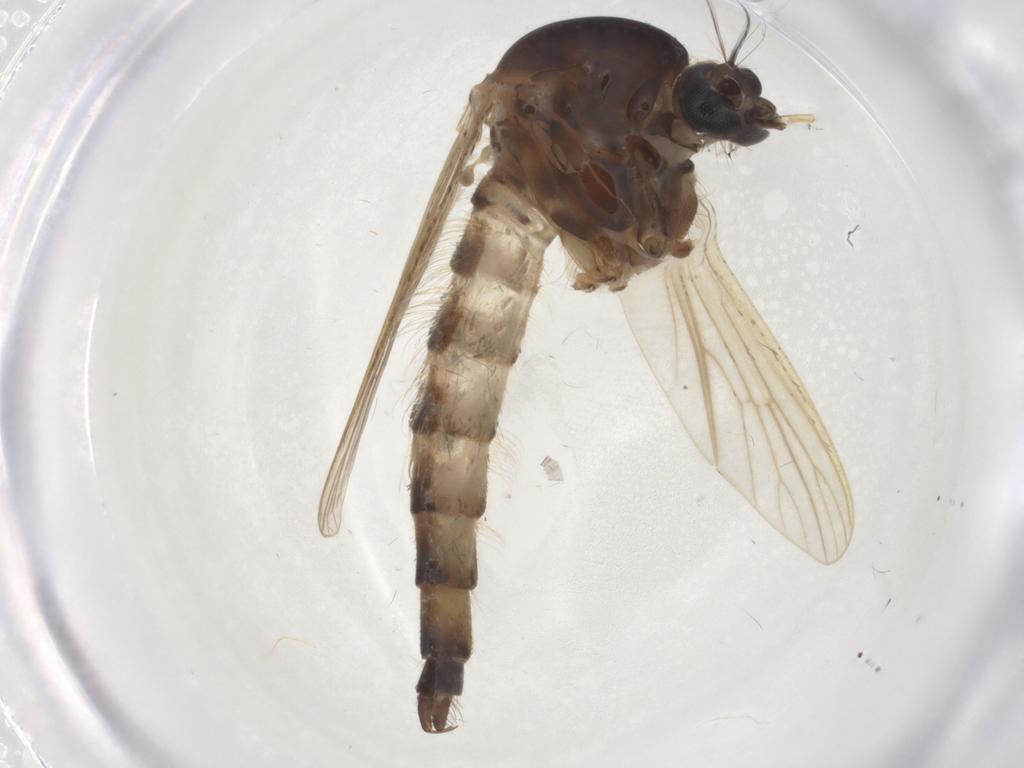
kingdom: Animalia
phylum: Arthropoda
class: Insecta
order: Diptera
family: Culicidae
